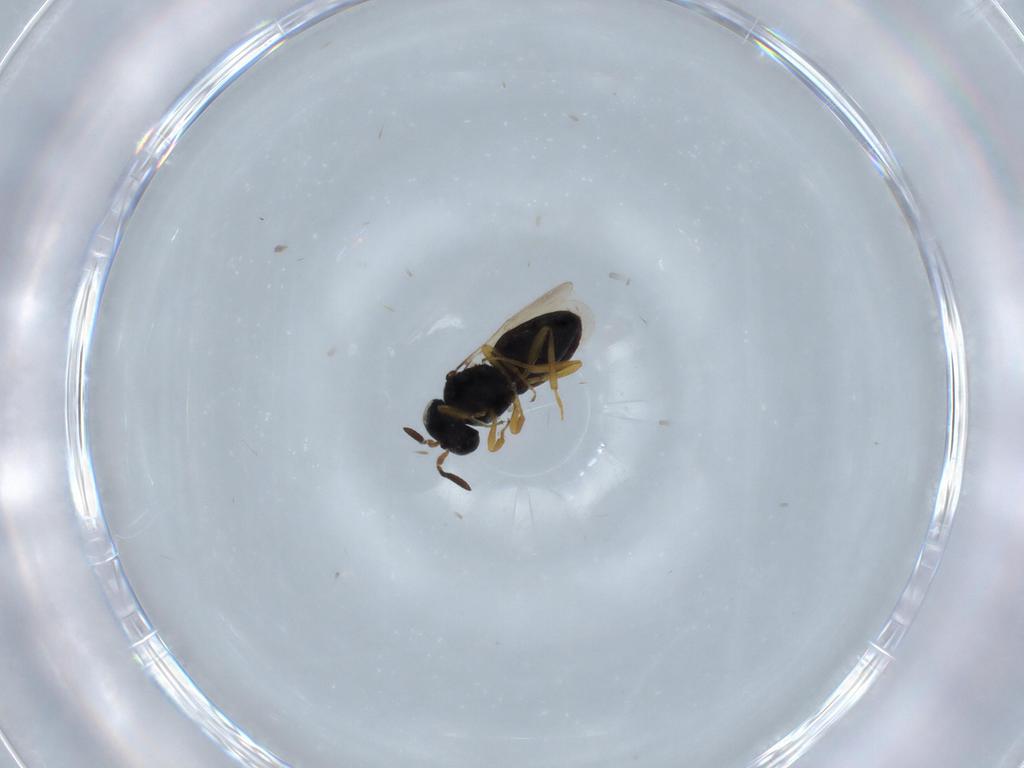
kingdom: Animalia
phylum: Arthropoda
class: Insecta
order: Hymenoptera
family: Scelionidae
